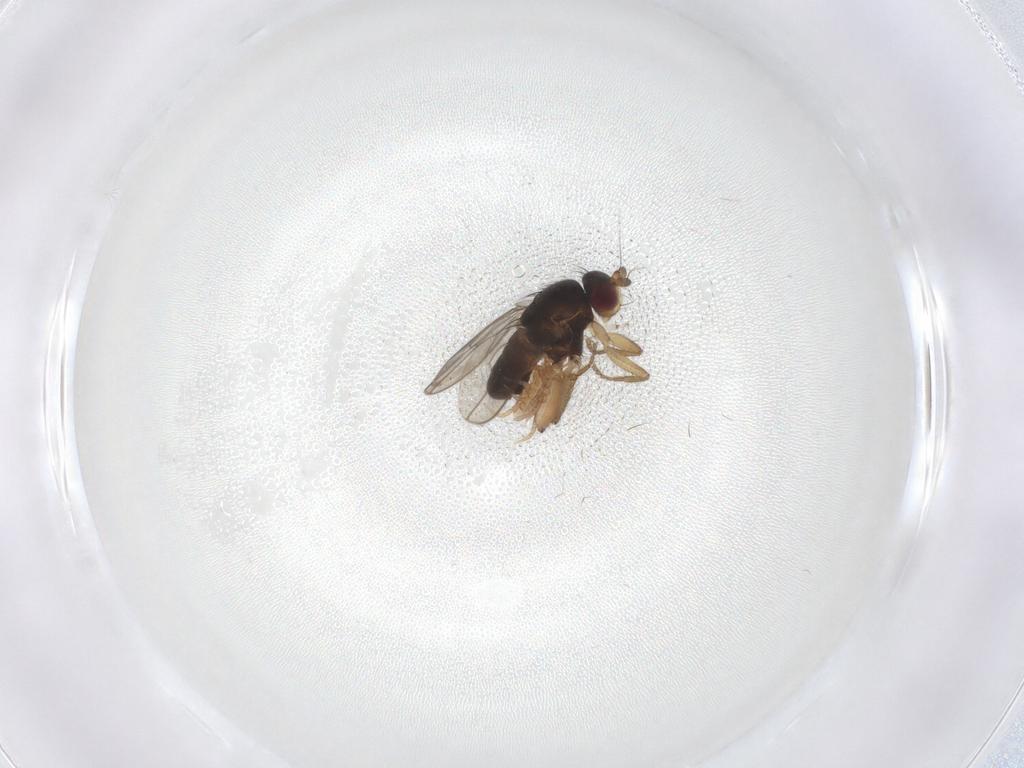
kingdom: Animalia
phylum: Arthropoda
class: Insecta
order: Diptera
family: Sphaeroceridae
